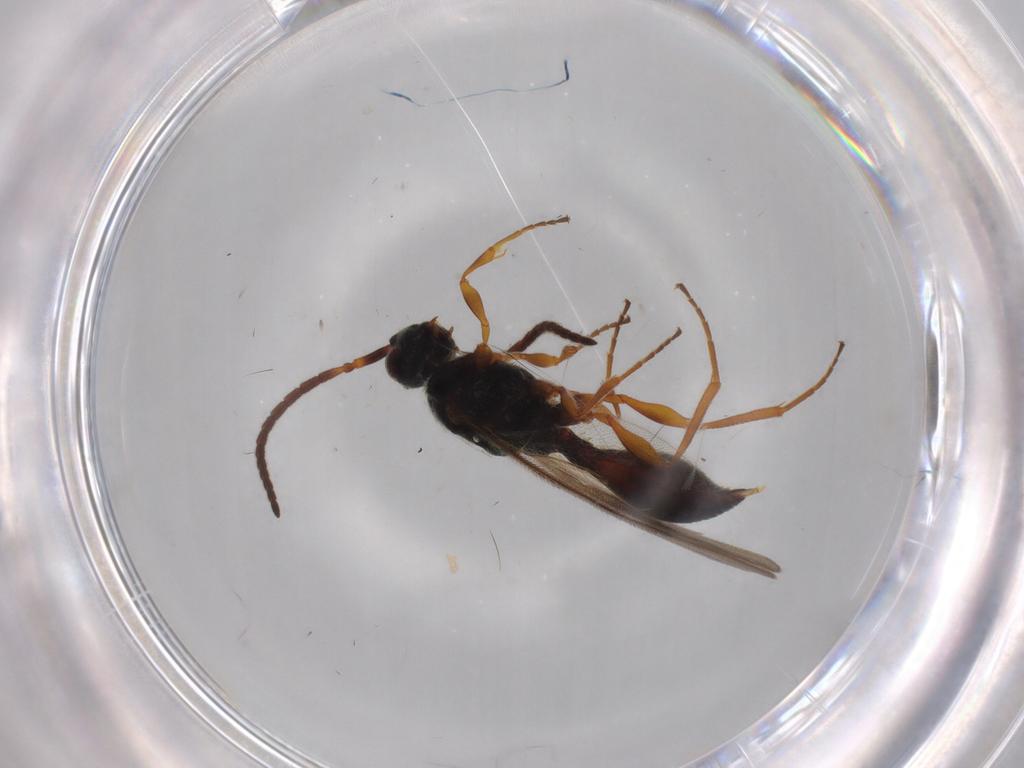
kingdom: Animalia
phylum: Arthropoda
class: Insecta
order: Hymenoptera
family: Diapriidae
